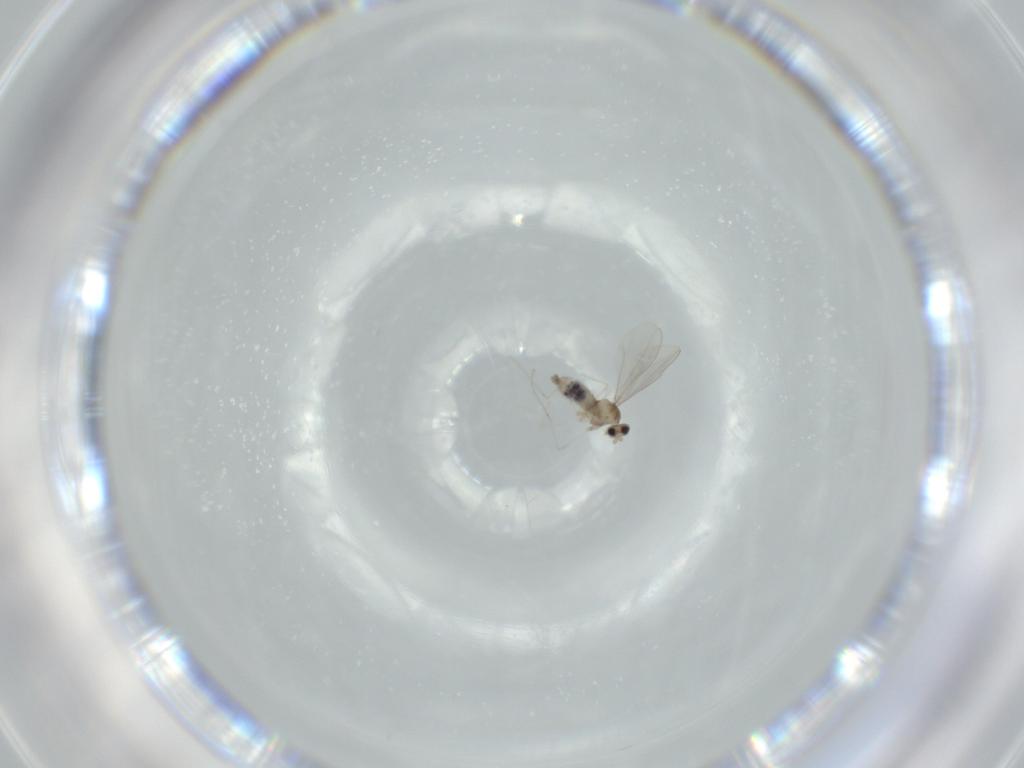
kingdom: Animalia
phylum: Arthropoda
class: Insecta
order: Diptera
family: Cecidomyiidae
